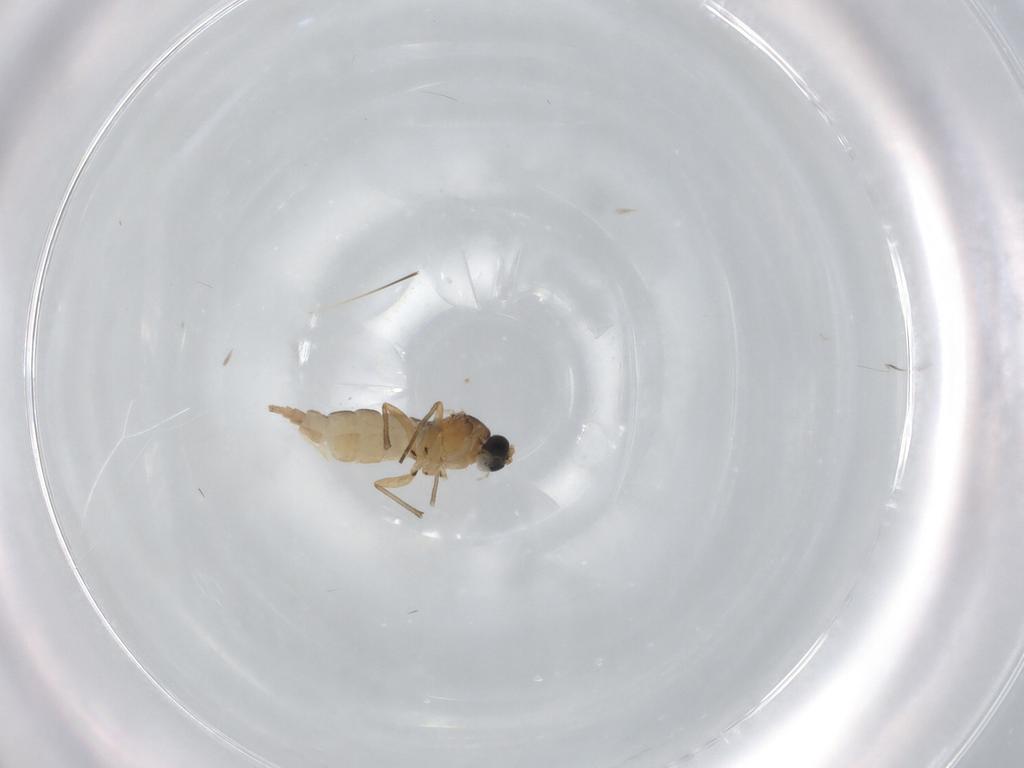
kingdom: Animalia
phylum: Arthropoda
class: Insecta
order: Diptera
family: Sciaridae
